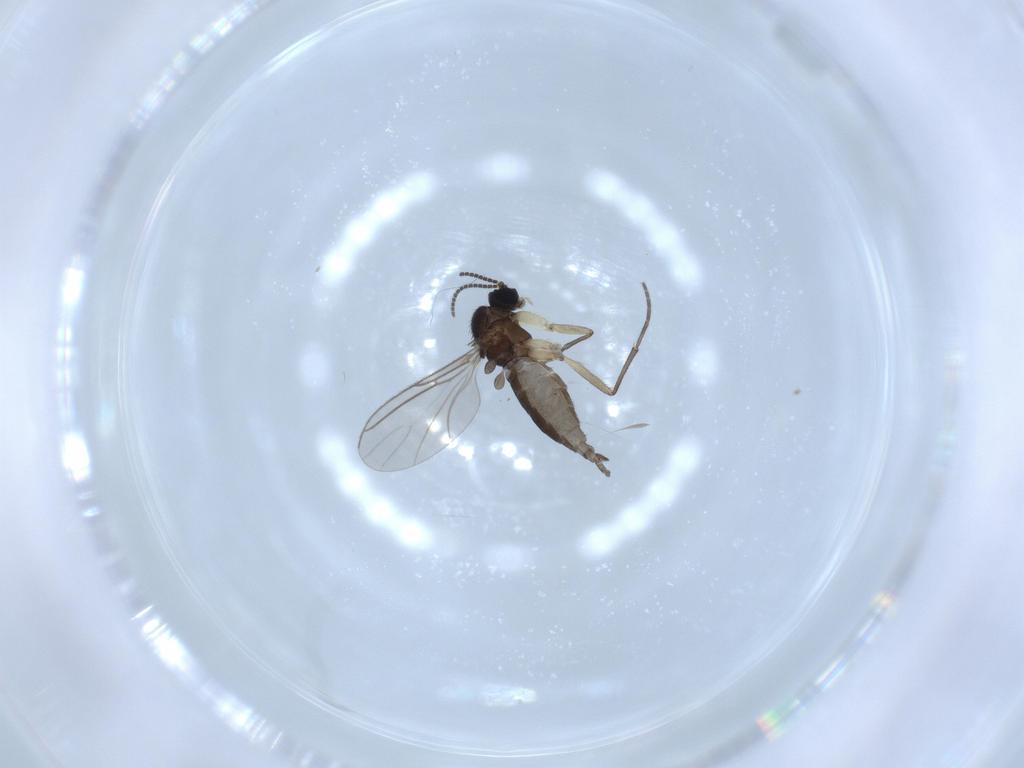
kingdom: Animalia
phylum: Arthropoda
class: Insecta
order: Diptera
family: Sciaridae
